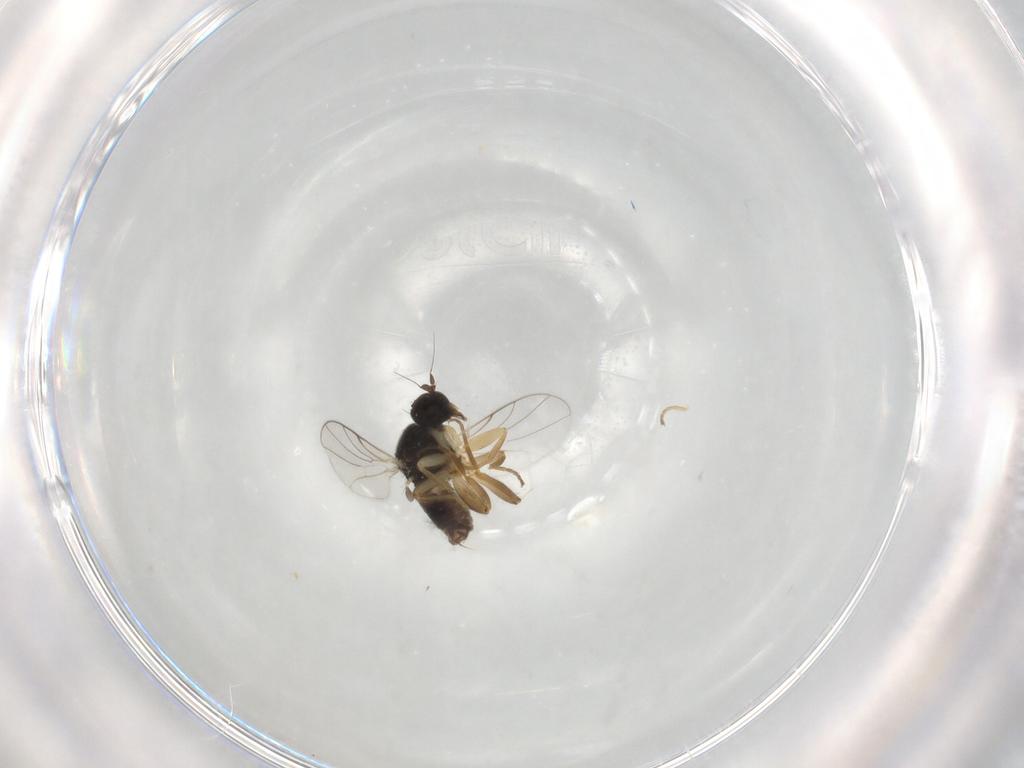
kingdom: Animalia
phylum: Arthropoda
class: Insecta
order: Diptera
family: Hybotidae
